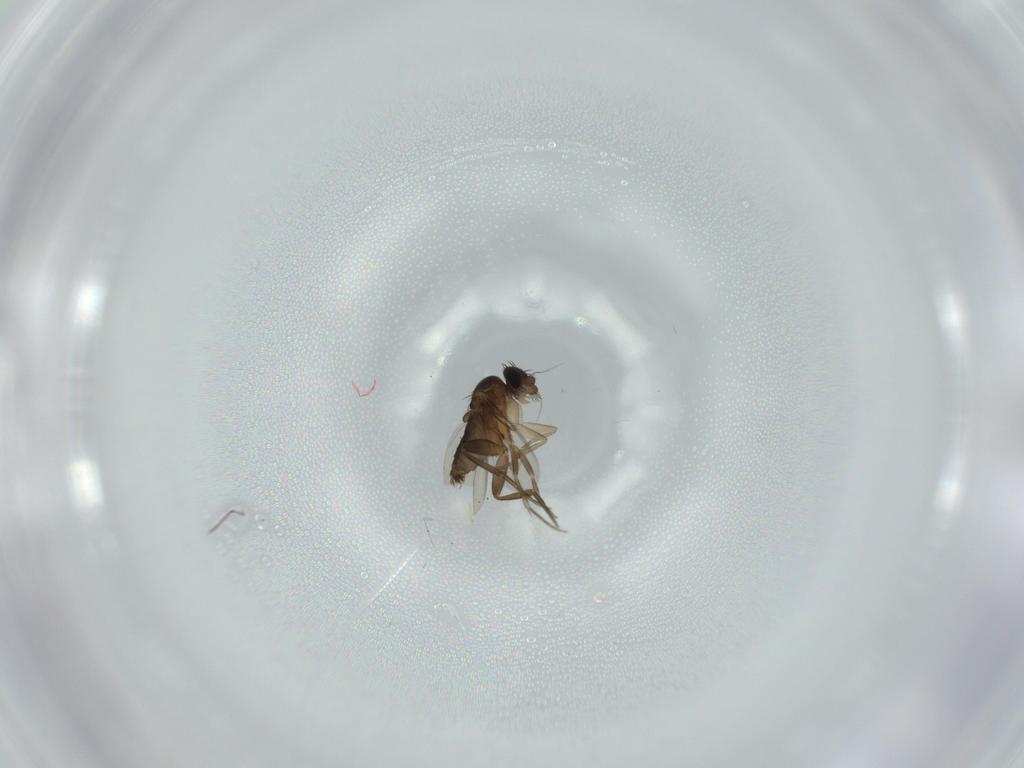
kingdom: Animalia
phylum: Arthropoda
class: Insecta
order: Diptera
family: Phoridae
